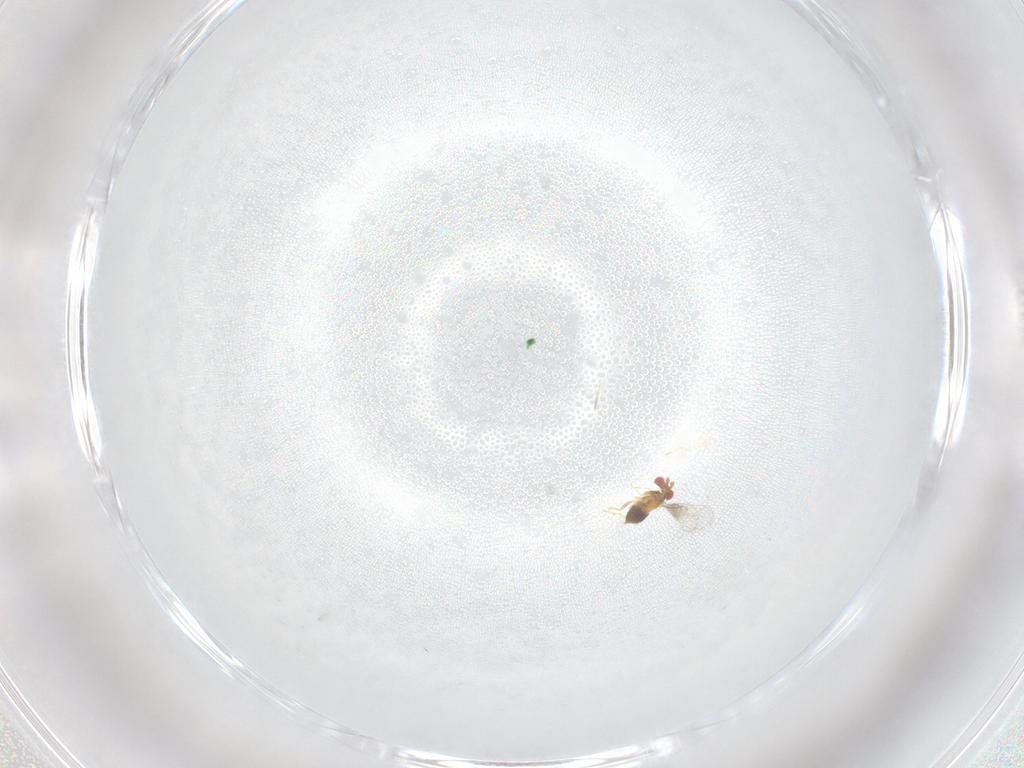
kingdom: Animalia
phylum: Arthropoda
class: Insecta
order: Hymenoptera
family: Trichogrammatidae
